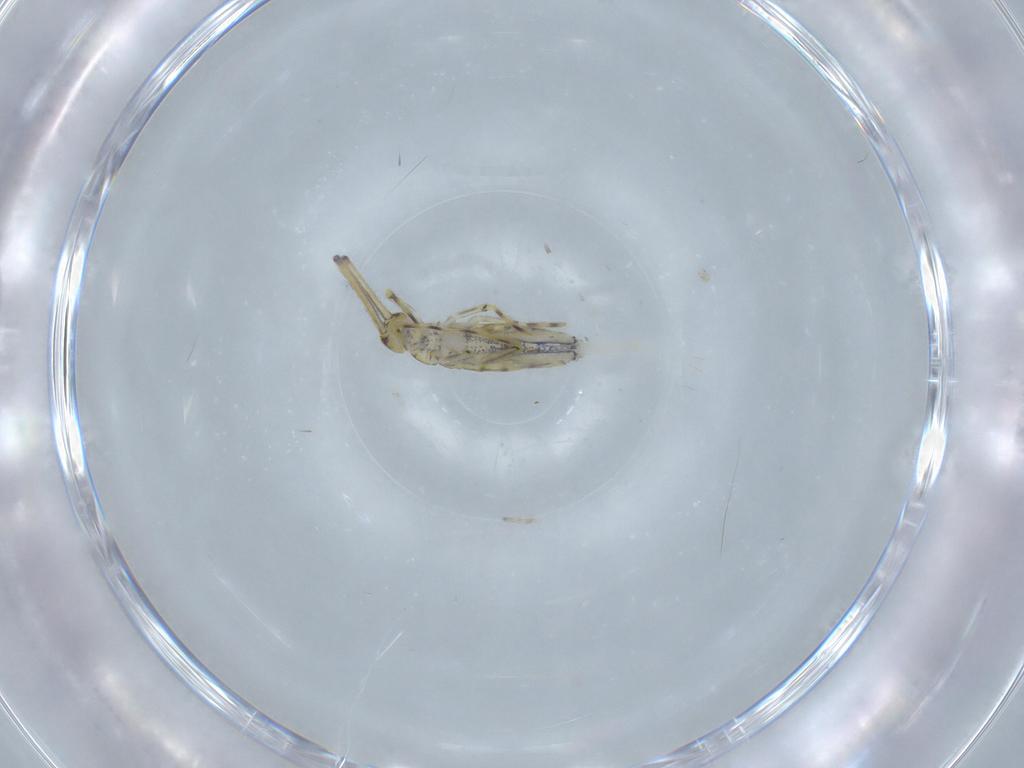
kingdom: Animalia
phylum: Arthropoda
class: Collembola
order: Entomobryomorpha
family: Paronellidae
